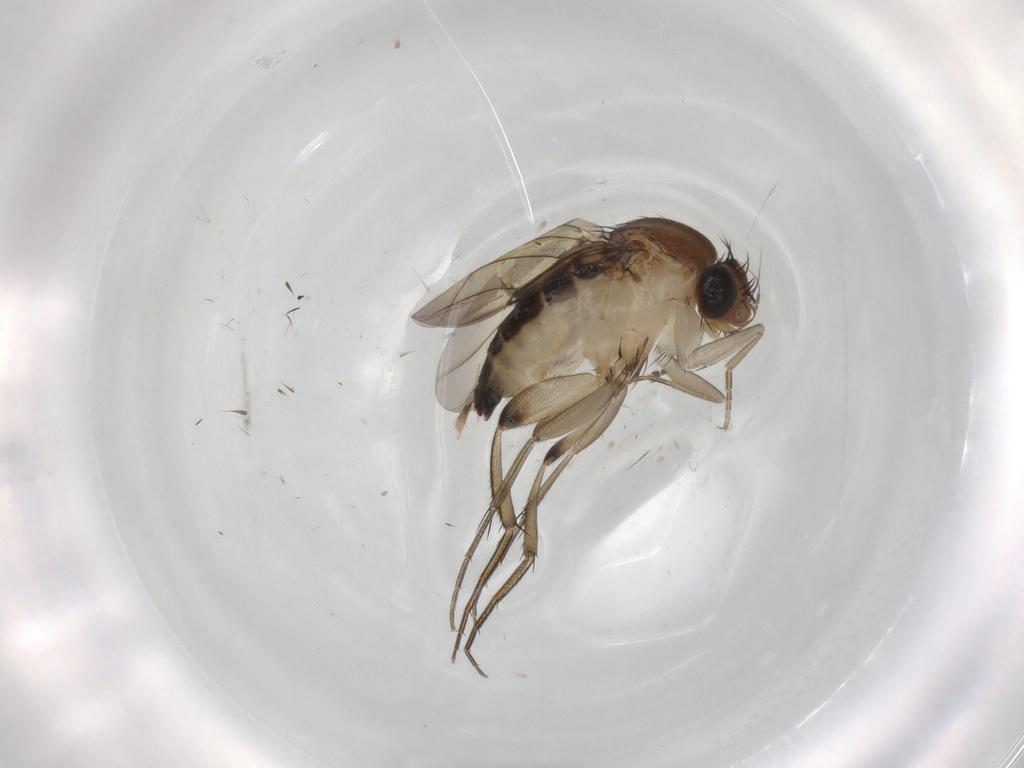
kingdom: Animalia
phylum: Arthropoda
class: Insecta
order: Diptera
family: Phoridae
